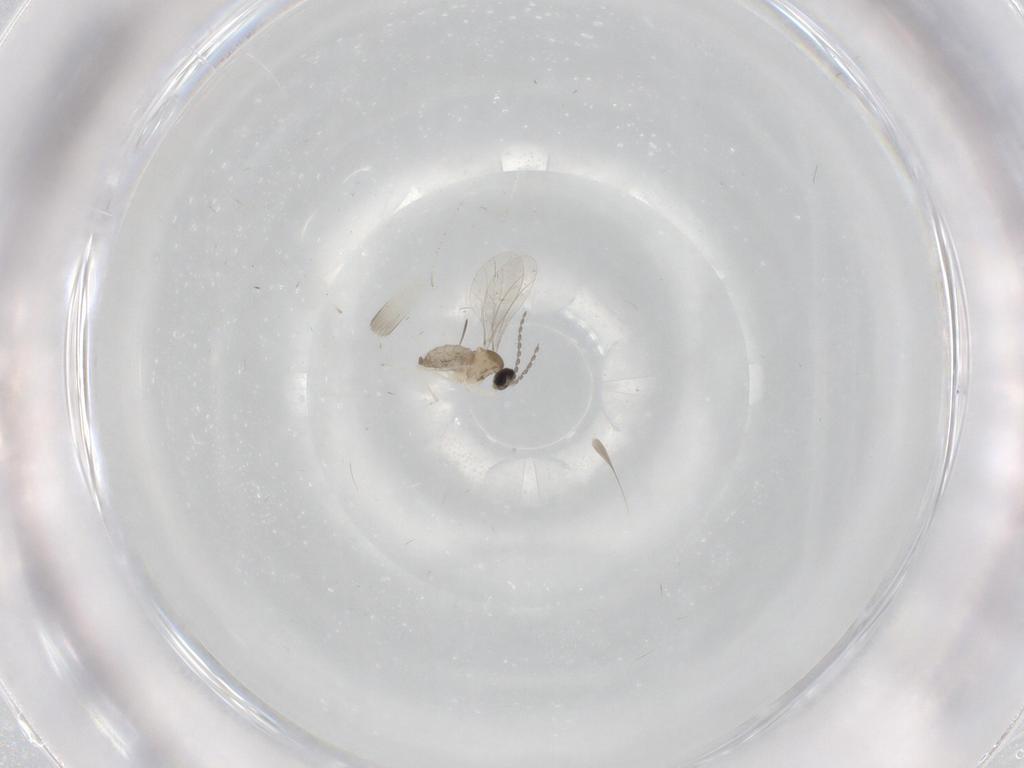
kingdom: Animalia
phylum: Arthropoda
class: Insecta
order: Diptera
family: Cecidomyiidae
